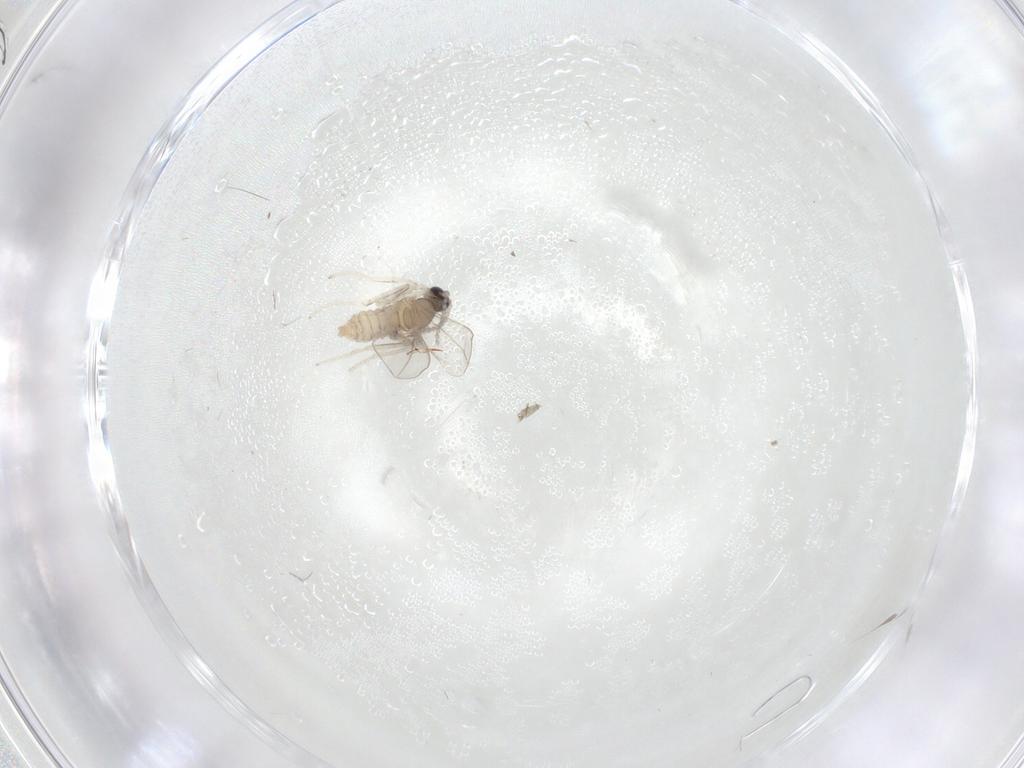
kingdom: Animalia
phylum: Arthropoda
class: Insecta
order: Diptera
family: Cecidomyiidae
